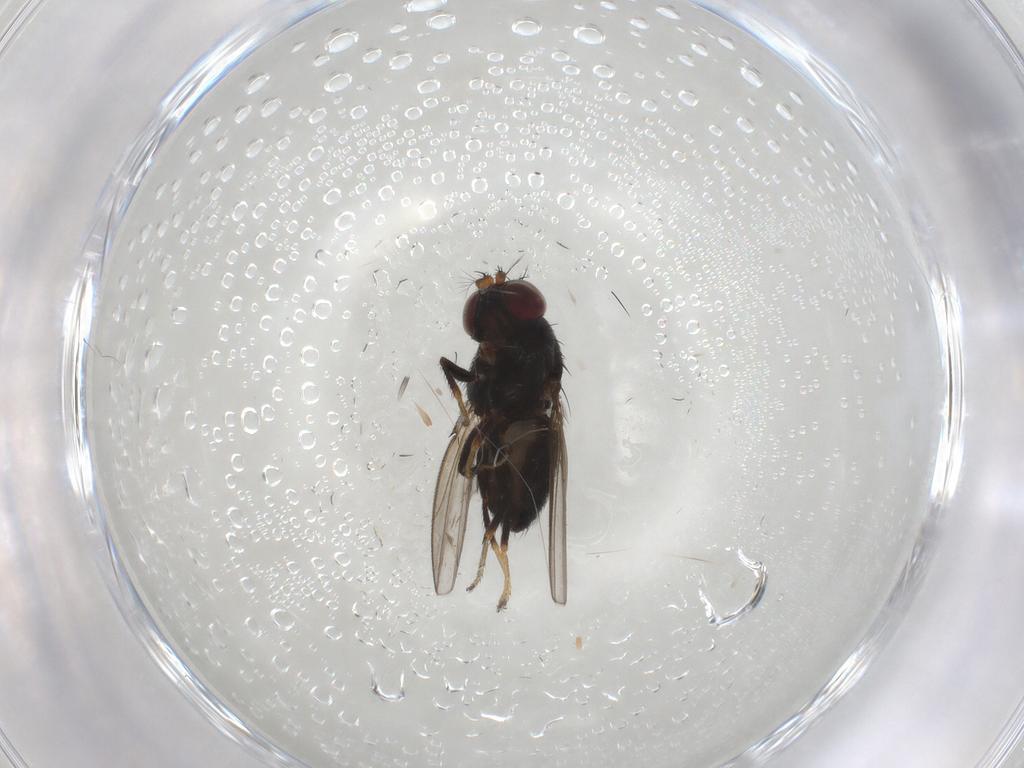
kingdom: Animalia
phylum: Arthropoda
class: Insecta
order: Diptera
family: Ephydridae
